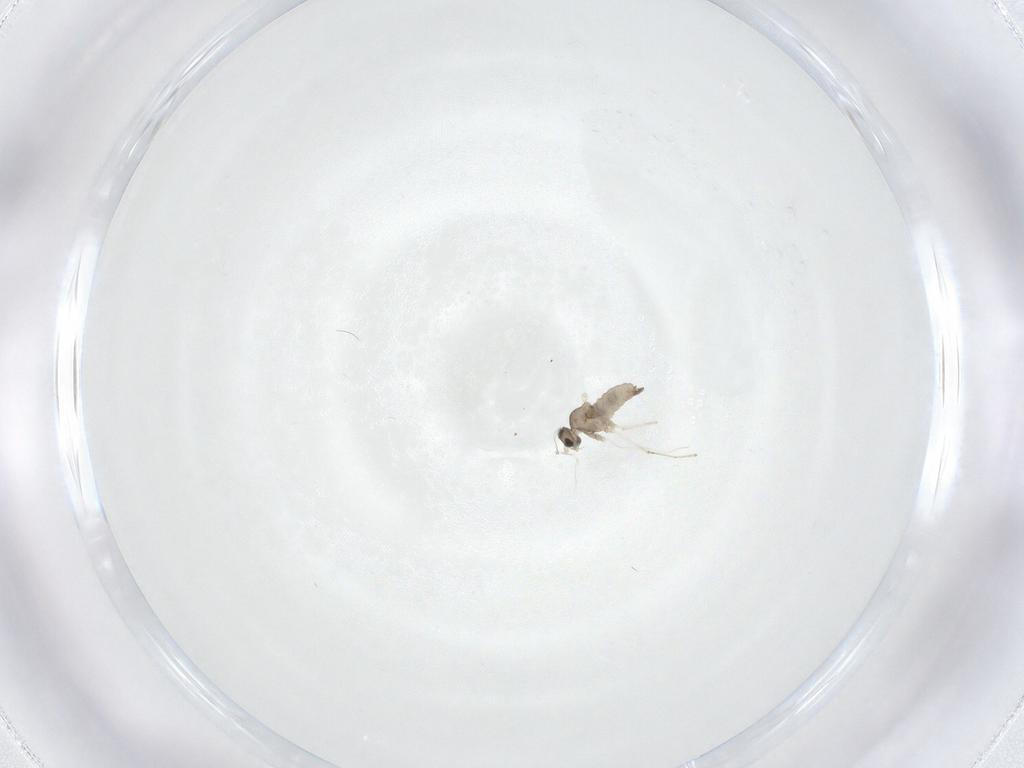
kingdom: Animalia
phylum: Arthropoda
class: Insecta
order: Diptera
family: Cecidomyiidae
